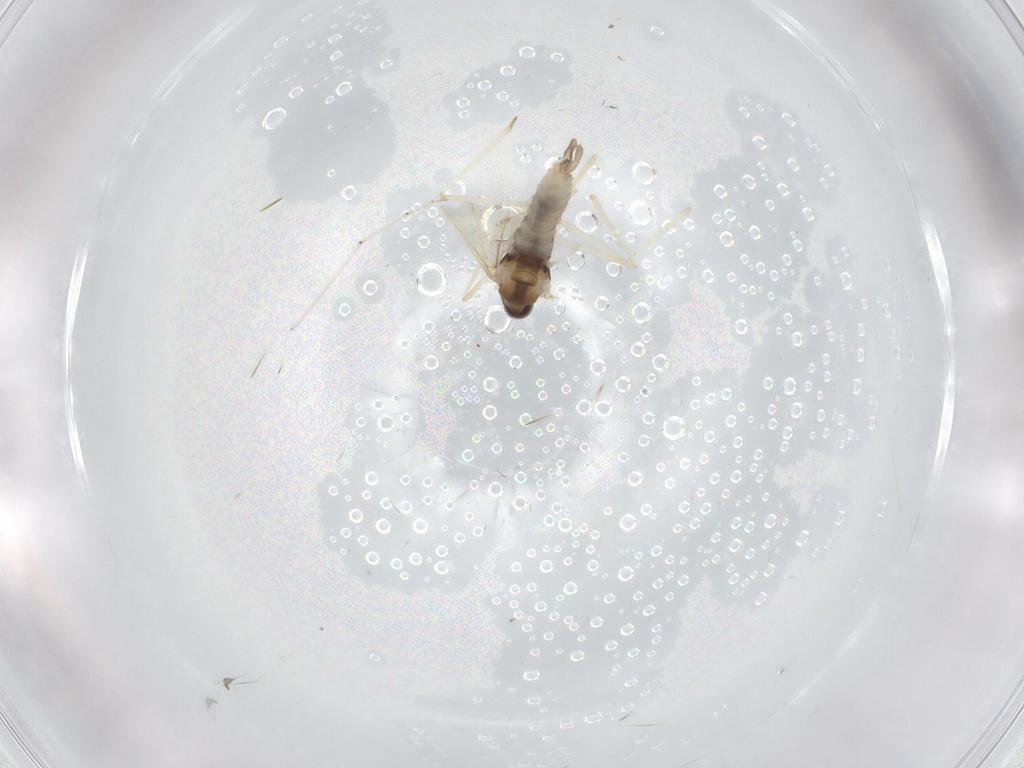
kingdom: Animalia
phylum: Arthropoda
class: Insecta
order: Diptera
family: Cecidomyiidae
